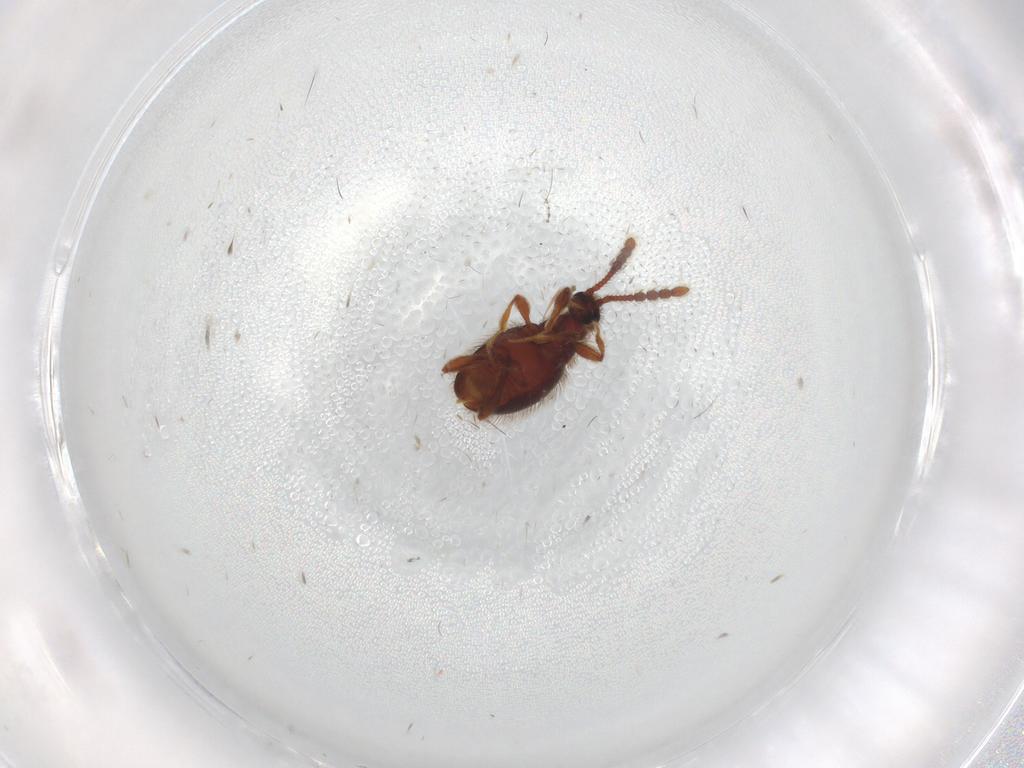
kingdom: Animalia
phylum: Arthropoda
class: Insecta
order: Coleoptera
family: Staphylinidae
